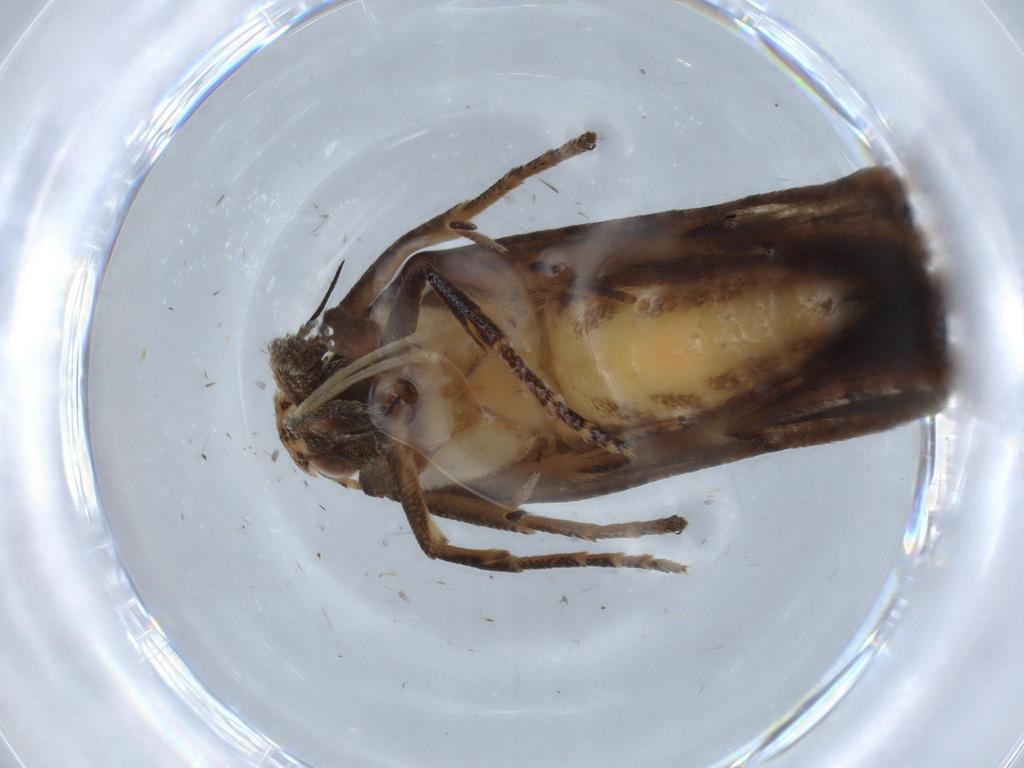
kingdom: Animalia
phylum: Arthropoda
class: Insecta
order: Lepidoptera
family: Gelechiidae
